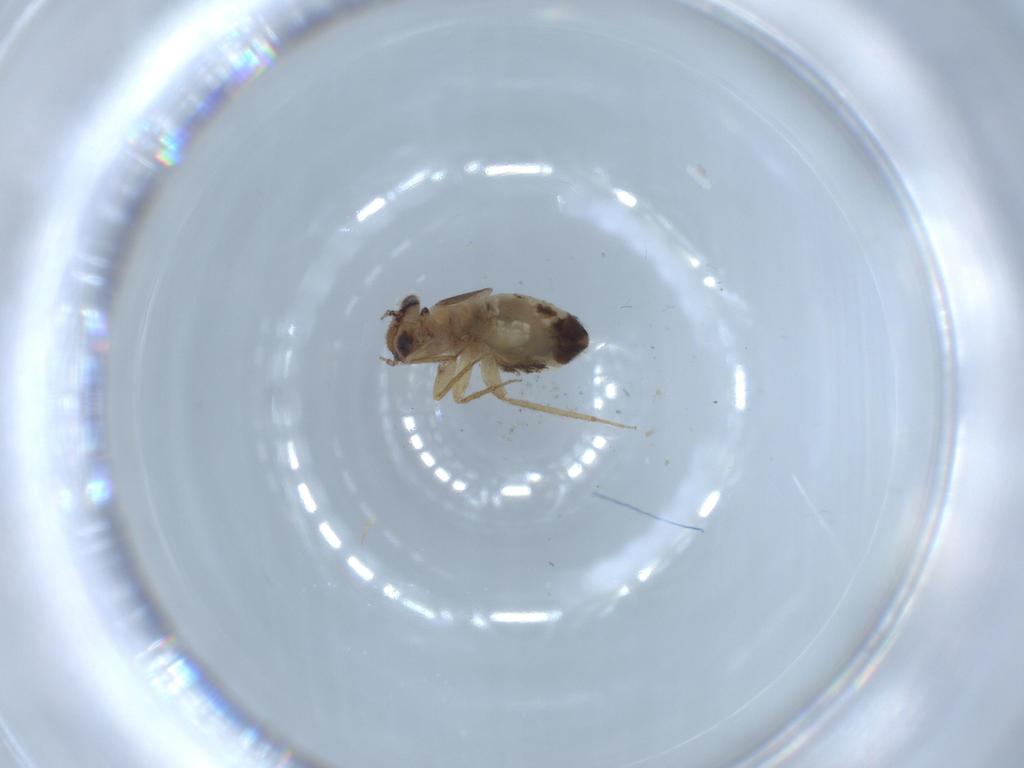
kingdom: Animalia
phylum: Arthropoda
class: Insecta
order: Psocodea
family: Lepidopsocidae
